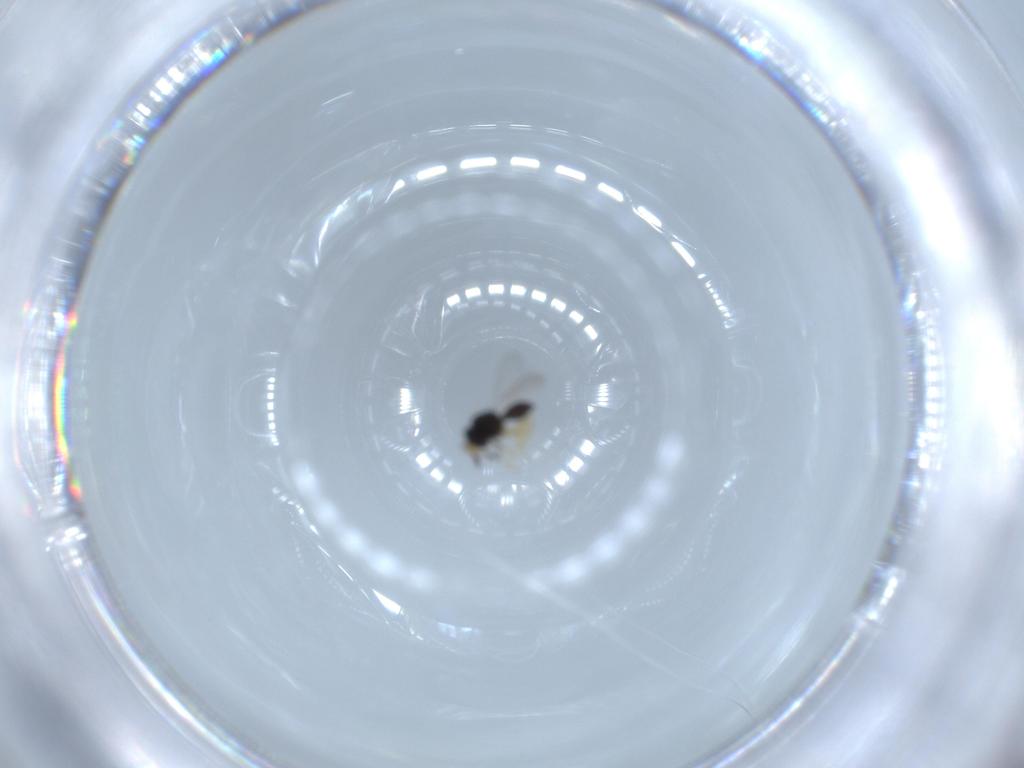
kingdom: Animalia
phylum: Arthropoda
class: Insecta
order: Hymenoptera
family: Scelionidae
